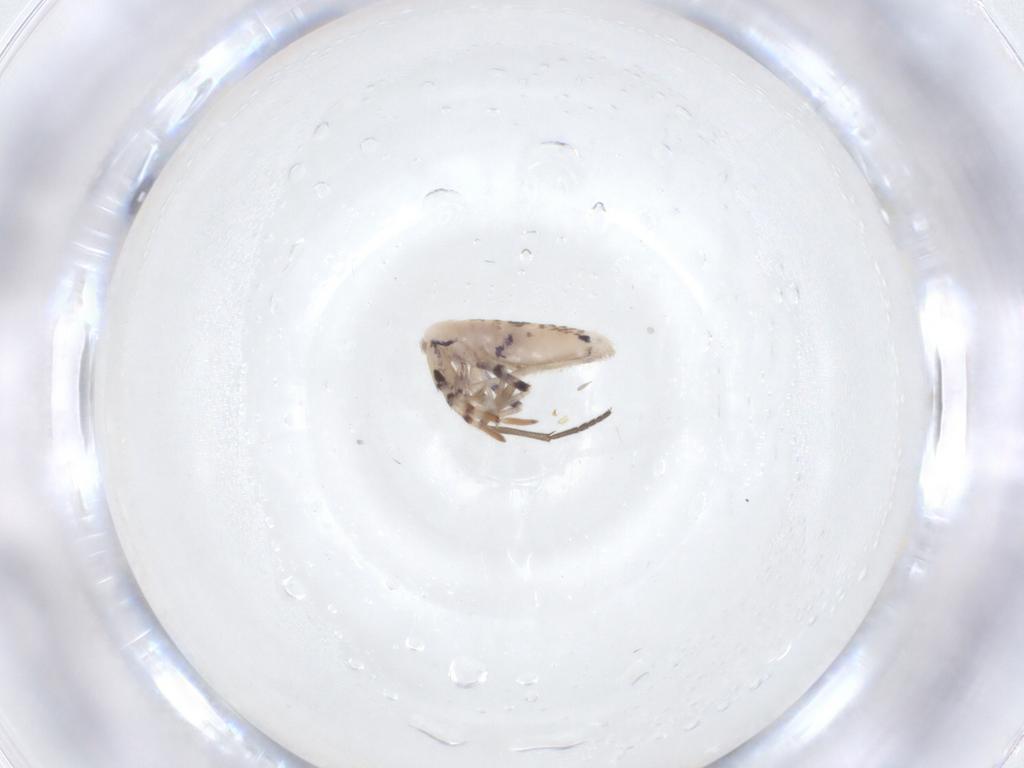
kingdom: Animalia
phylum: Arthropoda
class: Collembola
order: Entomobryomorpha
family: Entomobryidae
